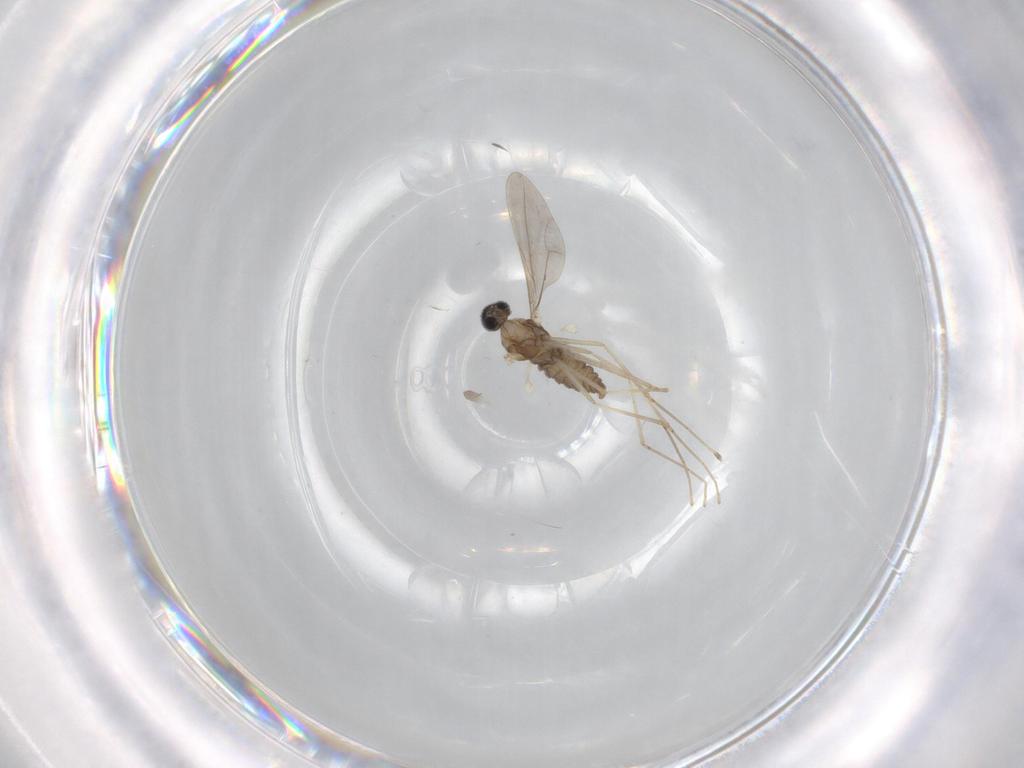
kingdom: Animalia
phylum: Arthropoda
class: Insecta
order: Diptera
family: Cecidomyiidae
